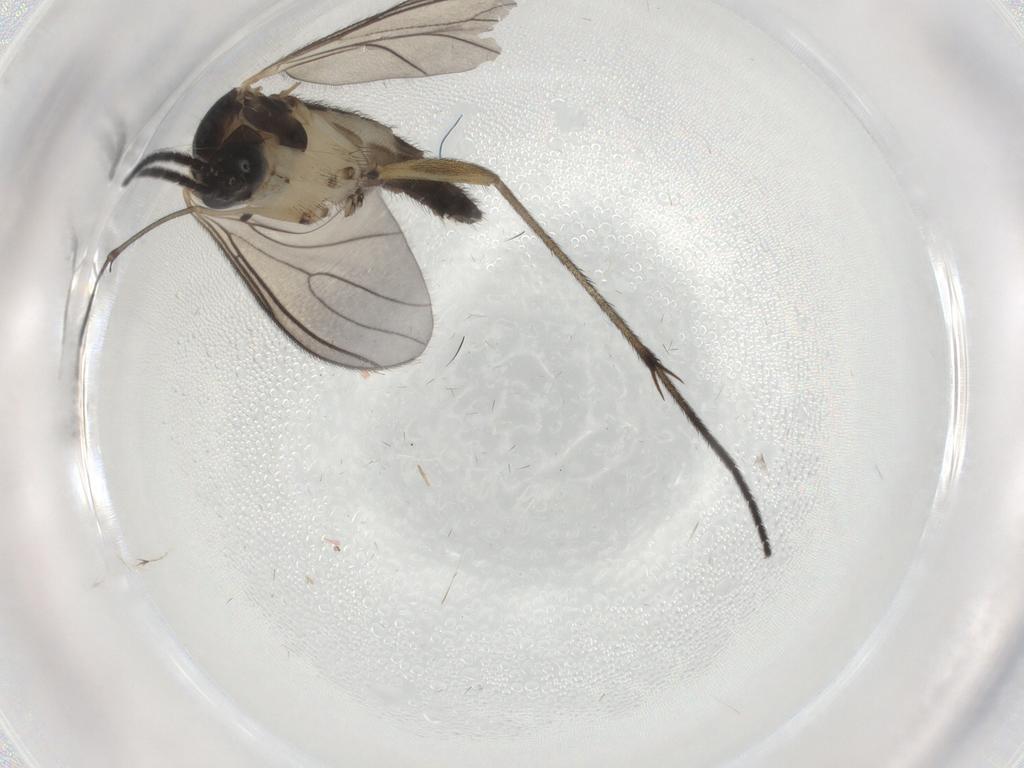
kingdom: Animalia
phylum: Arthropoda
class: Insecta
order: Diptera
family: Sciaridae
